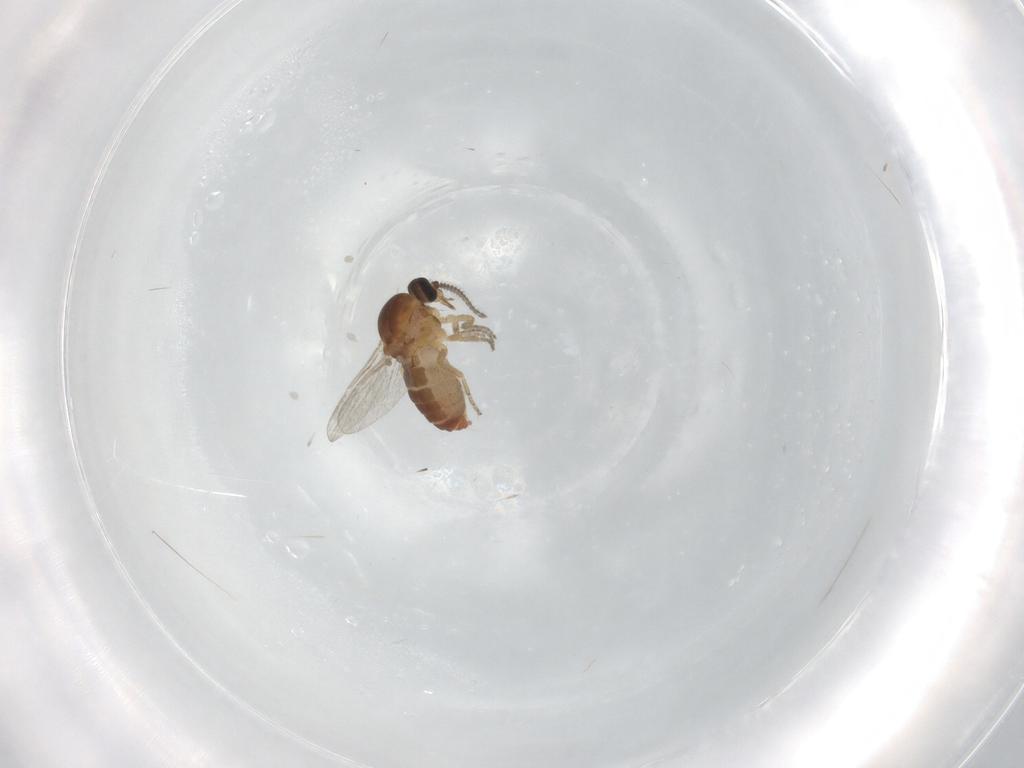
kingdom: Animalia
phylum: Arthropoda
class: Insecta
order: Diptera
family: Ceratopogonidae
